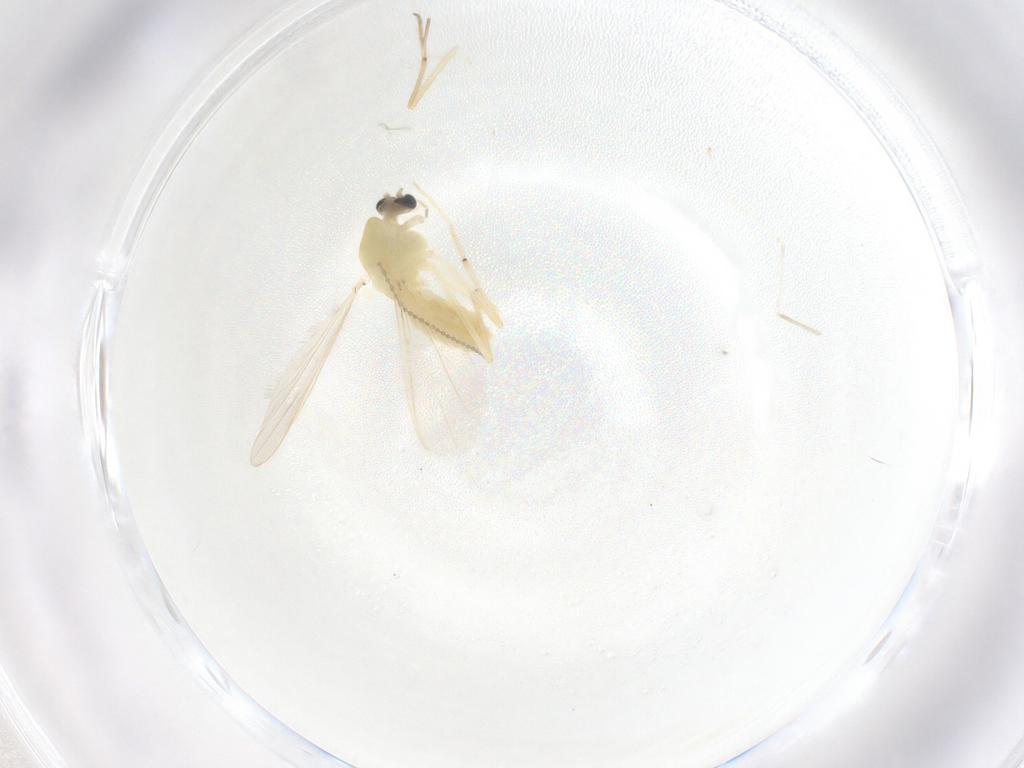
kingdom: Animalia
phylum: Arthropoda
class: Insecta
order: Diptera
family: Chironomidae
